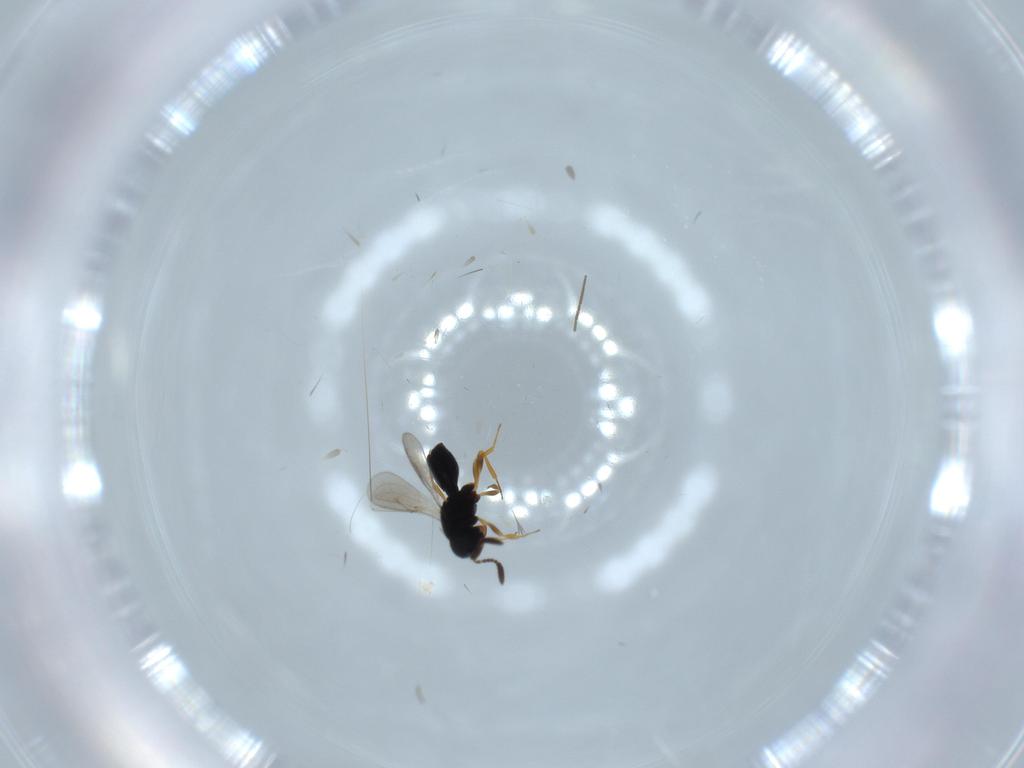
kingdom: Animalia
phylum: Arthropoda
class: Insecta
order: Hymenoptera
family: Scelionidae
